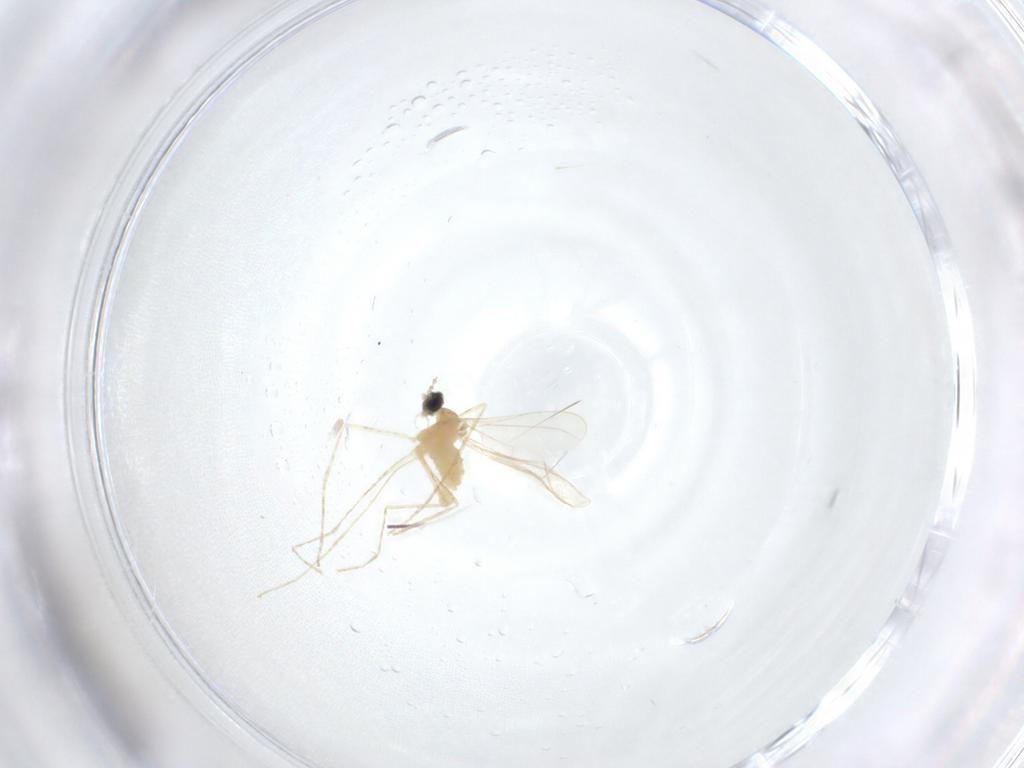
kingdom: Animalia
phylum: Arthropoda
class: Insecta
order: Diptera
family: Cecidomyiidae
